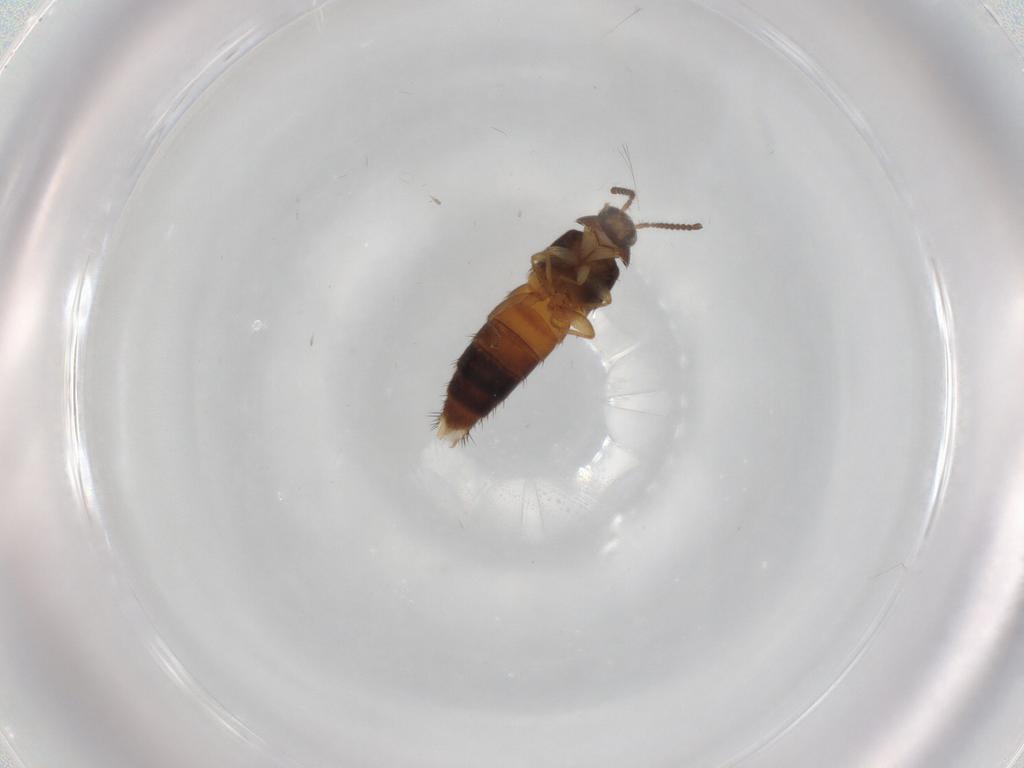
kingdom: Animalia
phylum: Arthropoda
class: Insecta
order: Coleoptera
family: Staphylinidae
